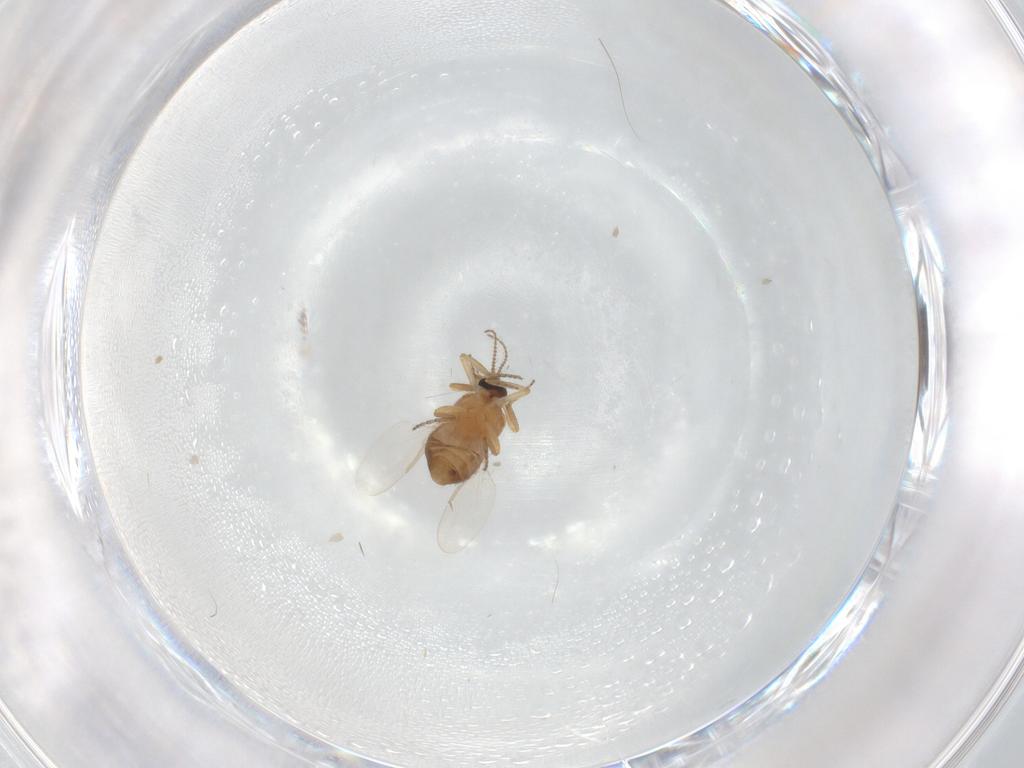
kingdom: Animalia
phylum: Arthropoda
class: Insecta
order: Diptera
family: Ceratopogonidae
